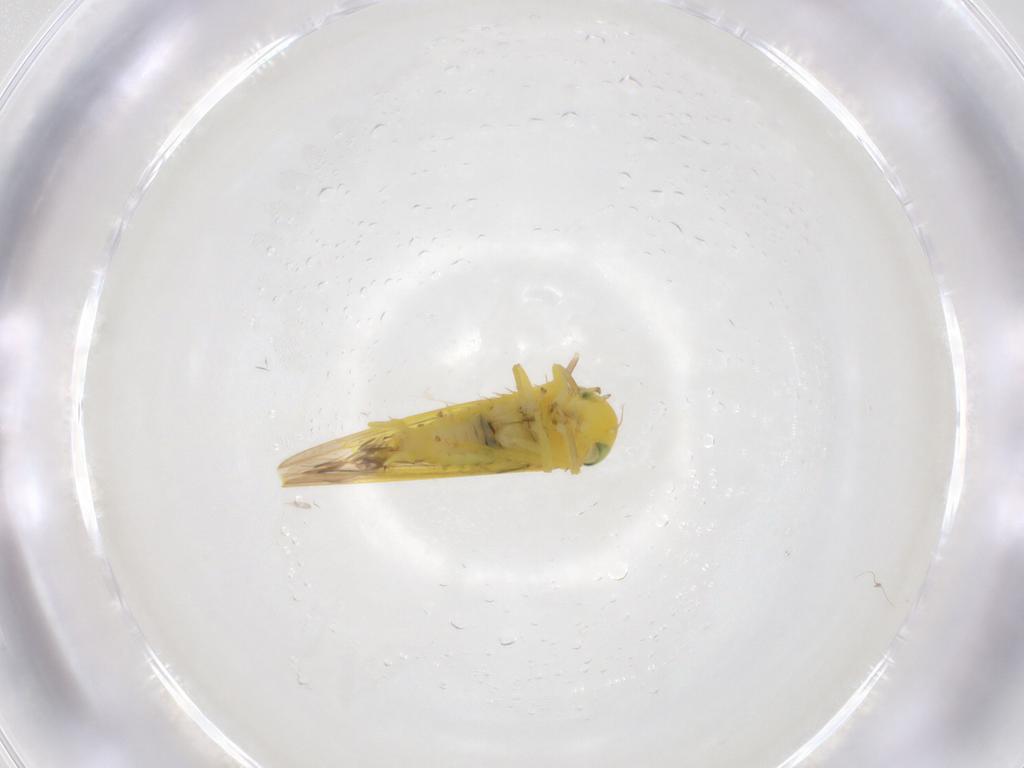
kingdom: Animalia
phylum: Arthropoda
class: Insecta
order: Hemiptera
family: Cicadellidae
